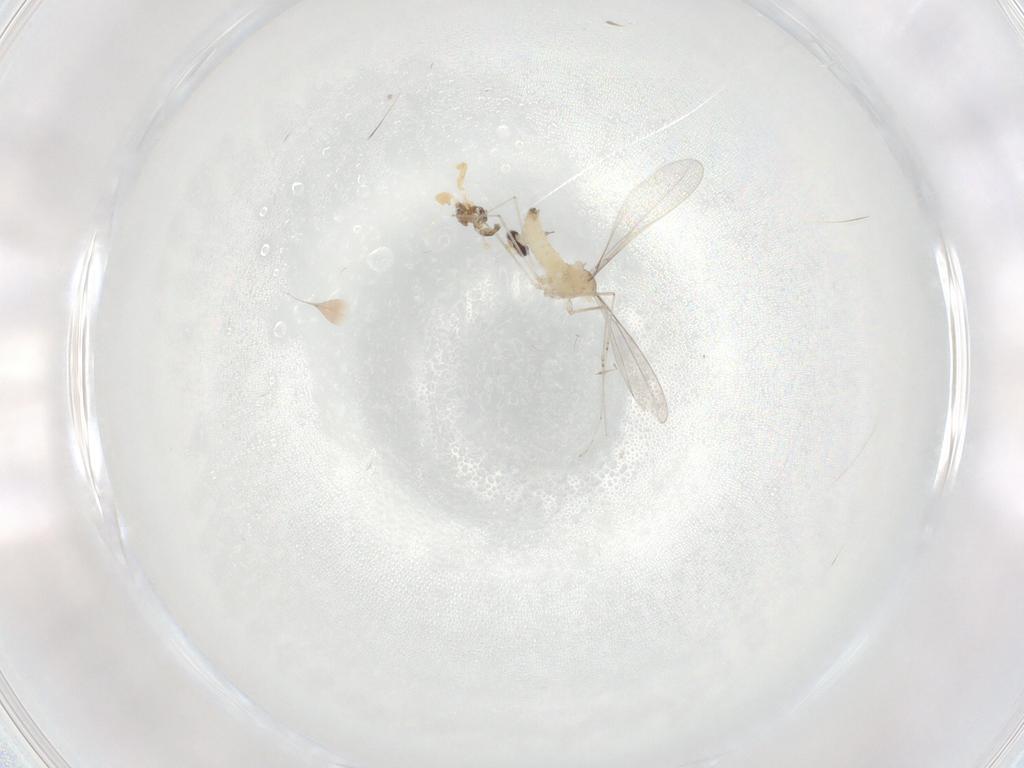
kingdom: Animalia
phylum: Arthropoda
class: Insecta
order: Diptera
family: Chironomidae
